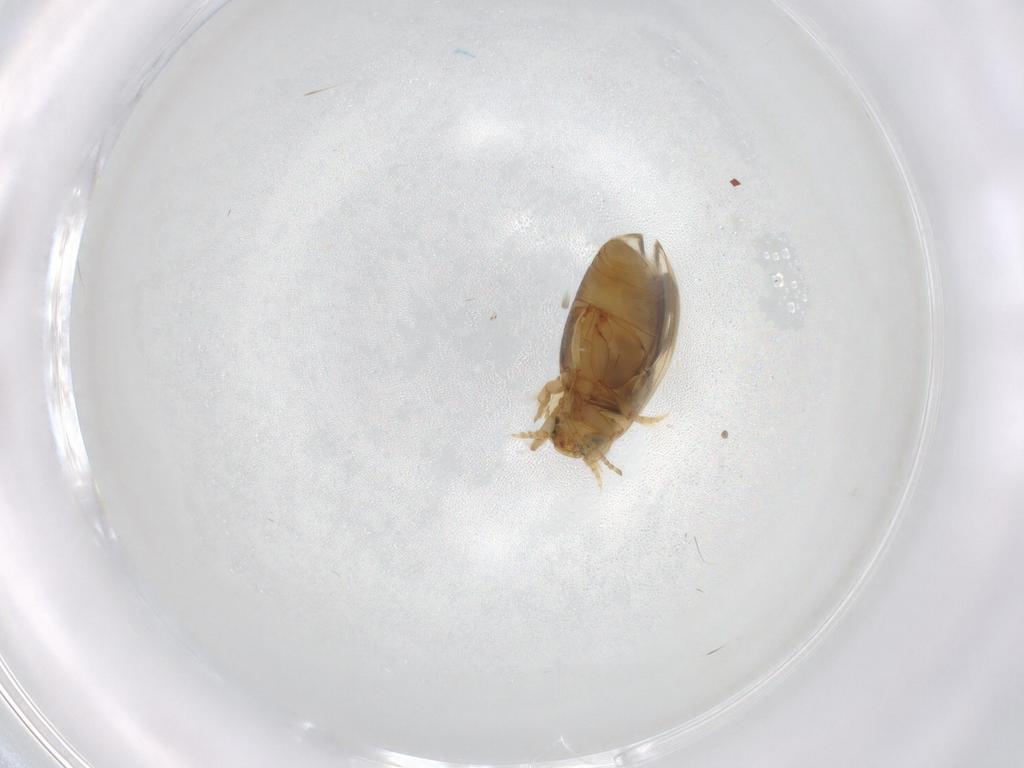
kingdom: Animalia
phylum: Arthropoda
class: Insecta
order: Coleoptera
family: Dytiscidae
